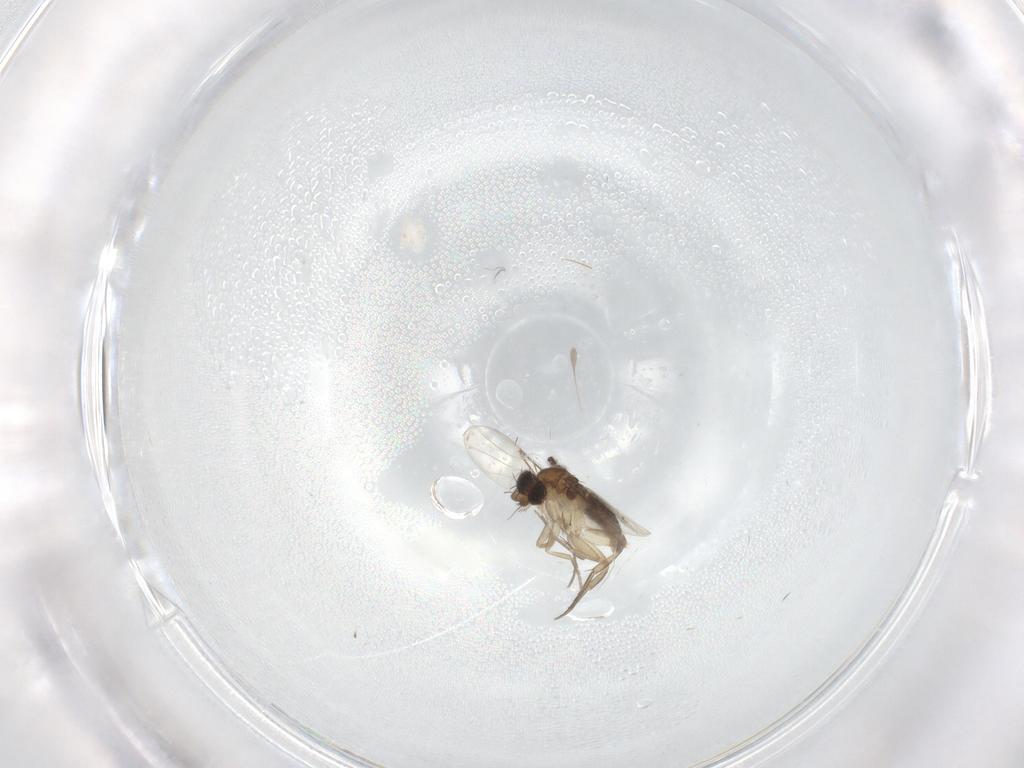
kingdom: Animalia
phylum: Arthropoda
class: Insecta
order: Diptera
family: Phoridae
